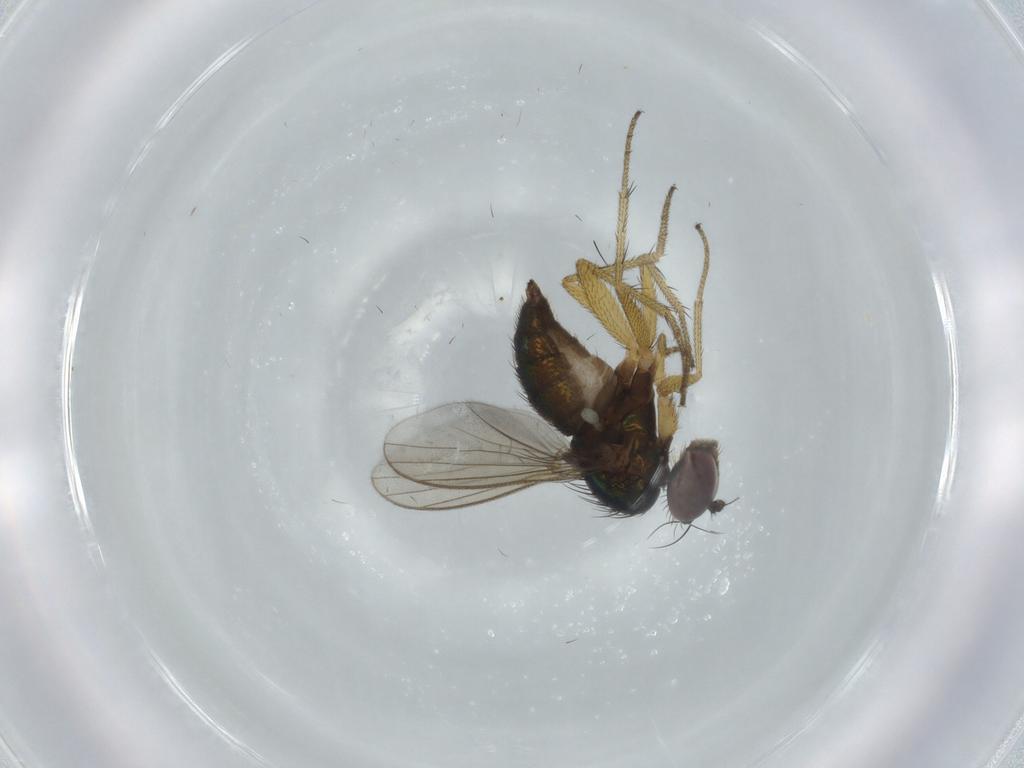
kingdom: Animalia
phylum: Arthropoda
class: Insecta
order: Diptera
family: Dolichopodidae
